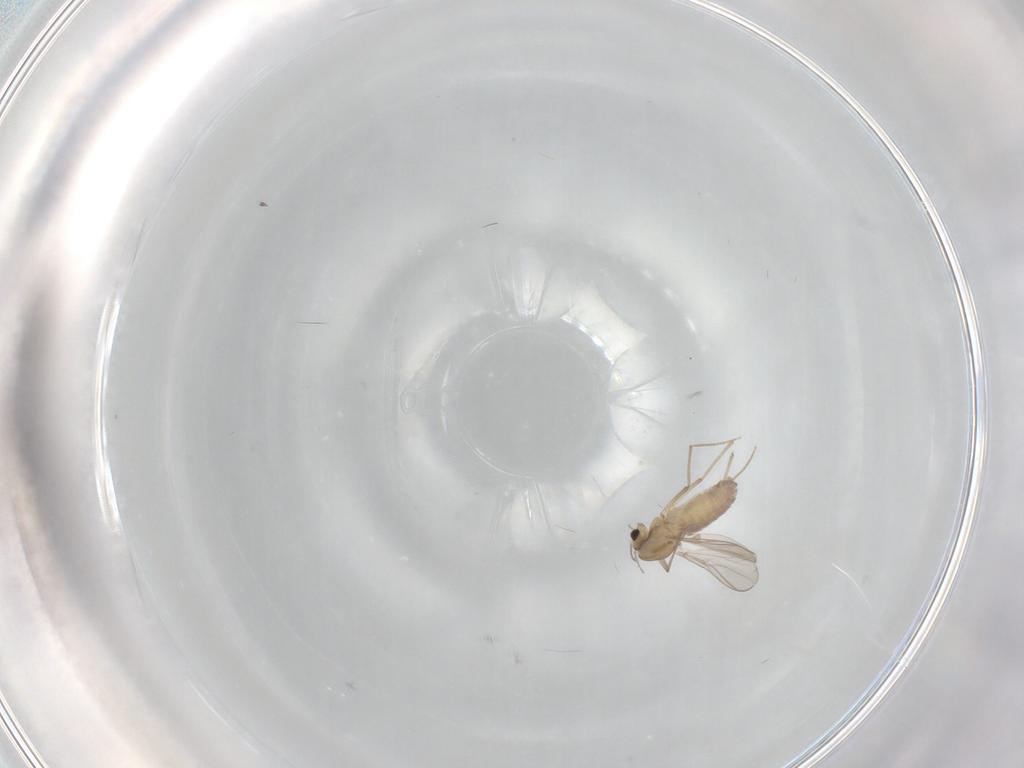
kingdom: Animalia
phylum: Arthropoda
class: Insecta
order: Diptera
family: Chironomidae
